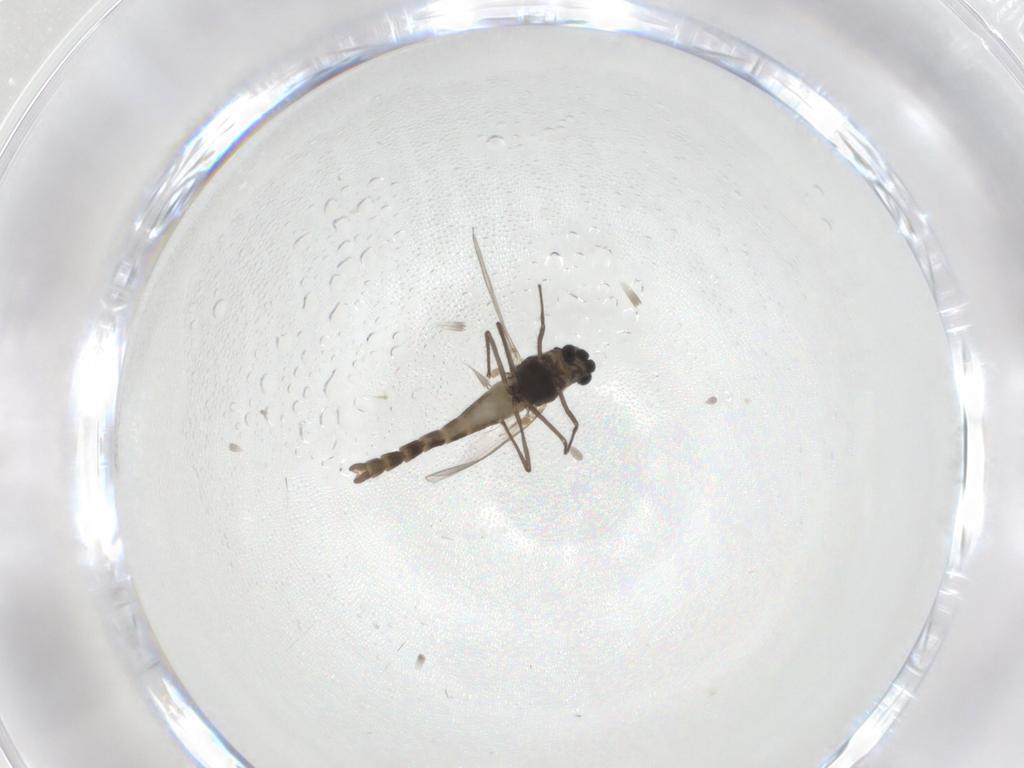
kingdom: Animalia
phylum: Arthropoda
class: Insecta
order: Diptera
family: Chironomidae
